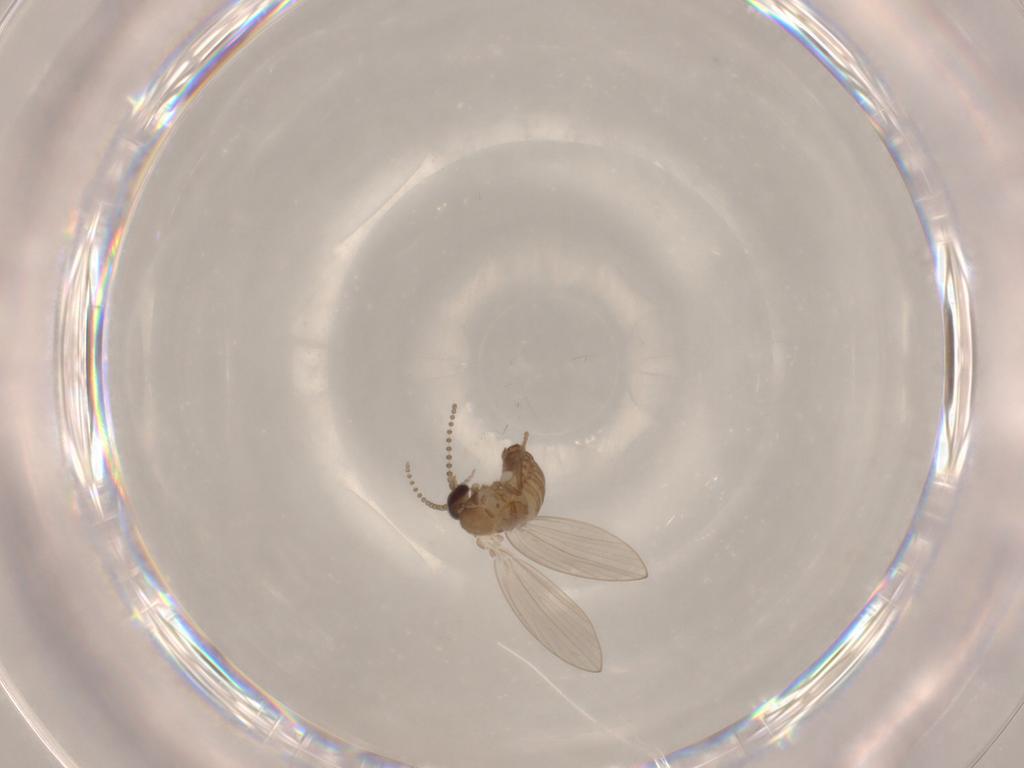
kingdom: Animalia
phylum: Arthropoda
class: Insecta
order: Diptera
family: Psychodidae
